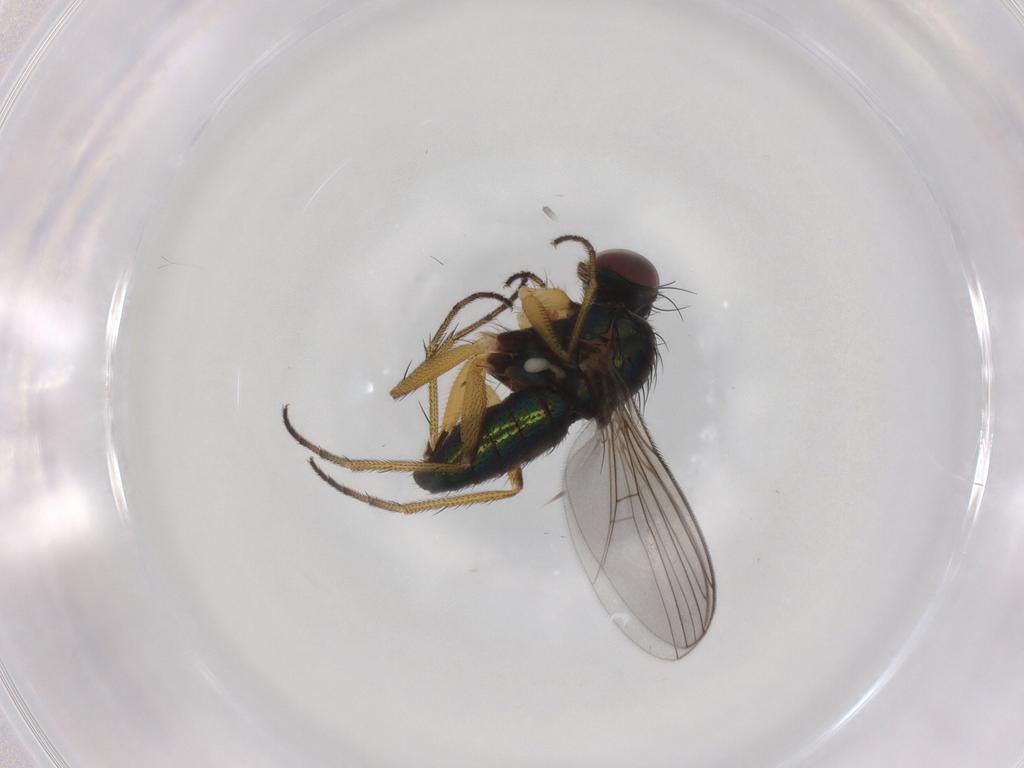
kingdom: Animalia
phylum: Arthropoda
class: Insecta
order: Diptera
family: Dolichopodidae
